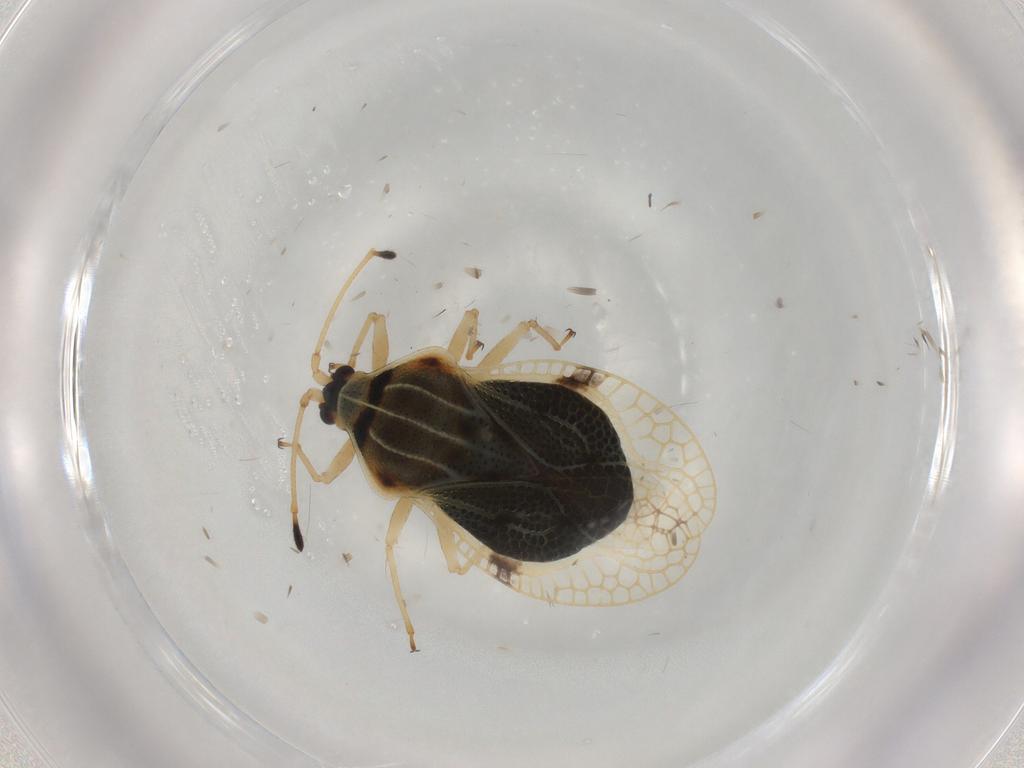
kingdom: Animalia
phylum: Arthropoda
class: Insecta
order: Hemiptera
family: Tingidae
